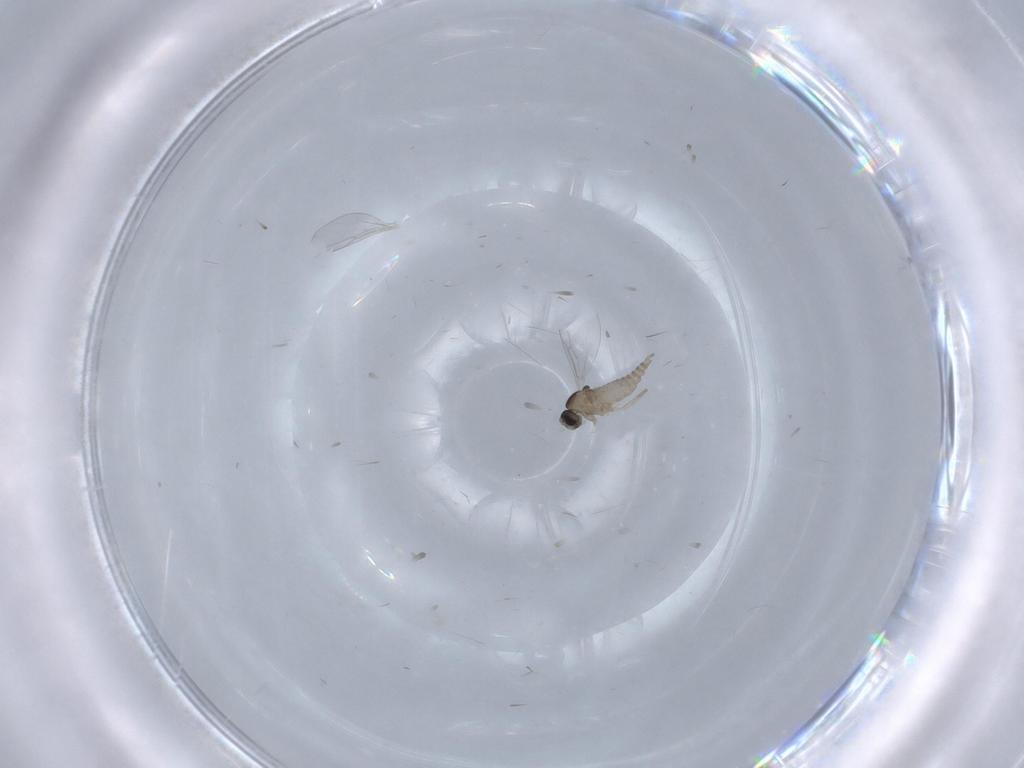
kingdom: Animalia
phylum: Arthropoda
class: Insecta
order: Diptera
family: Cecidomyiidae
